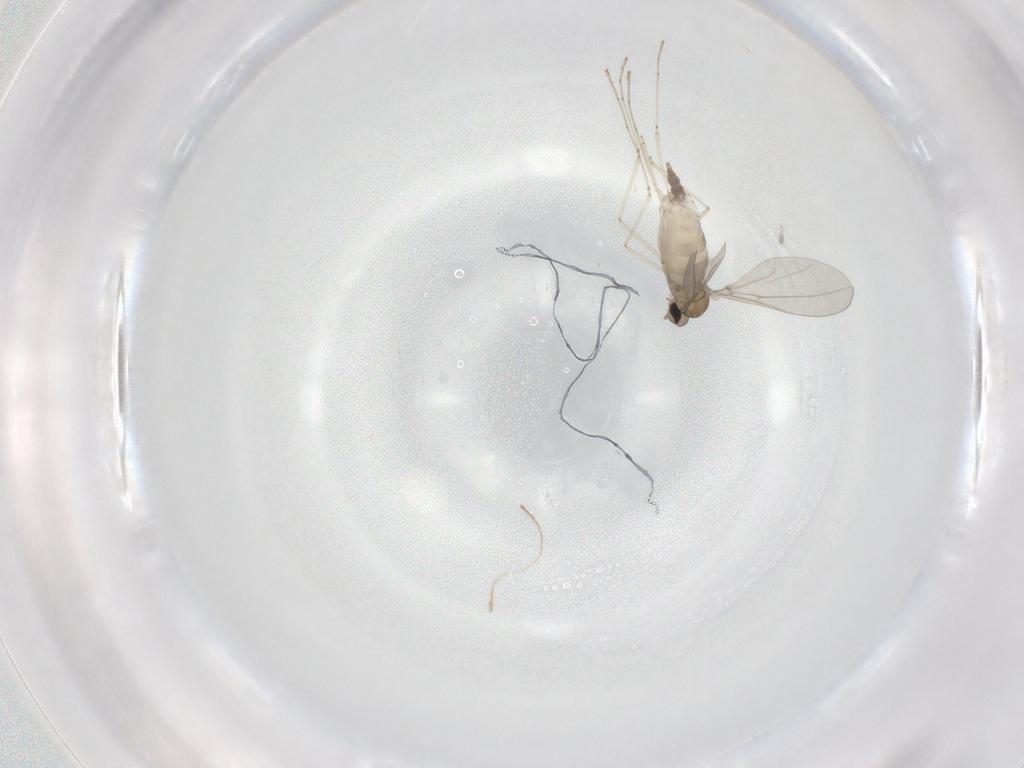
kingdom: Animalia
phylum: Arthropoda
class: Insecta
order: Diptera
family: Cecidomyiidae
